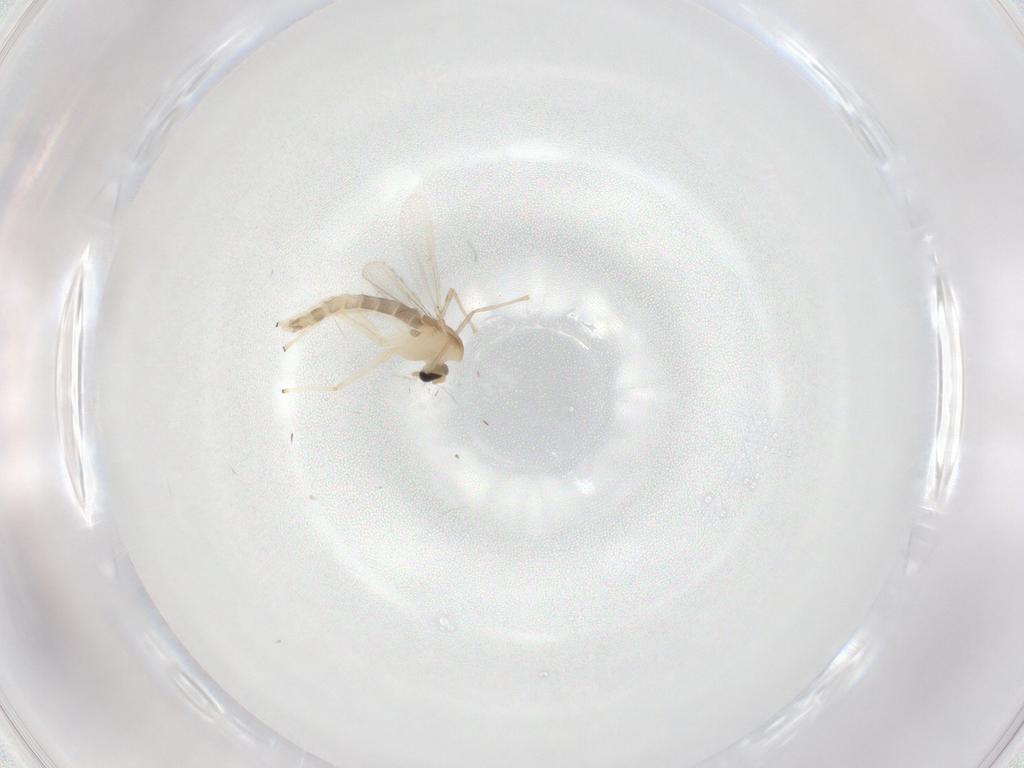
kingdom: Animalia
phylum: Arthropoda
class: Insecta
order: Diptera
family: Chironomidae
